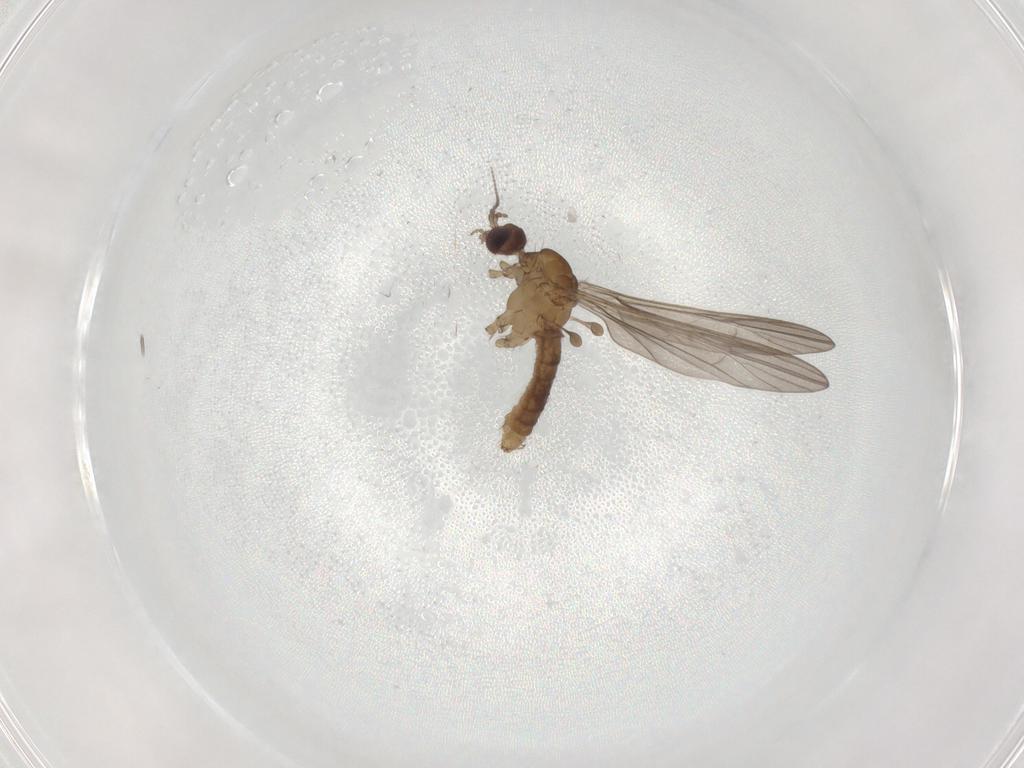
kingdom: Animalia
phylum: Arthropoda
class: Insecta
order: Diptera
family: Limoniidae
